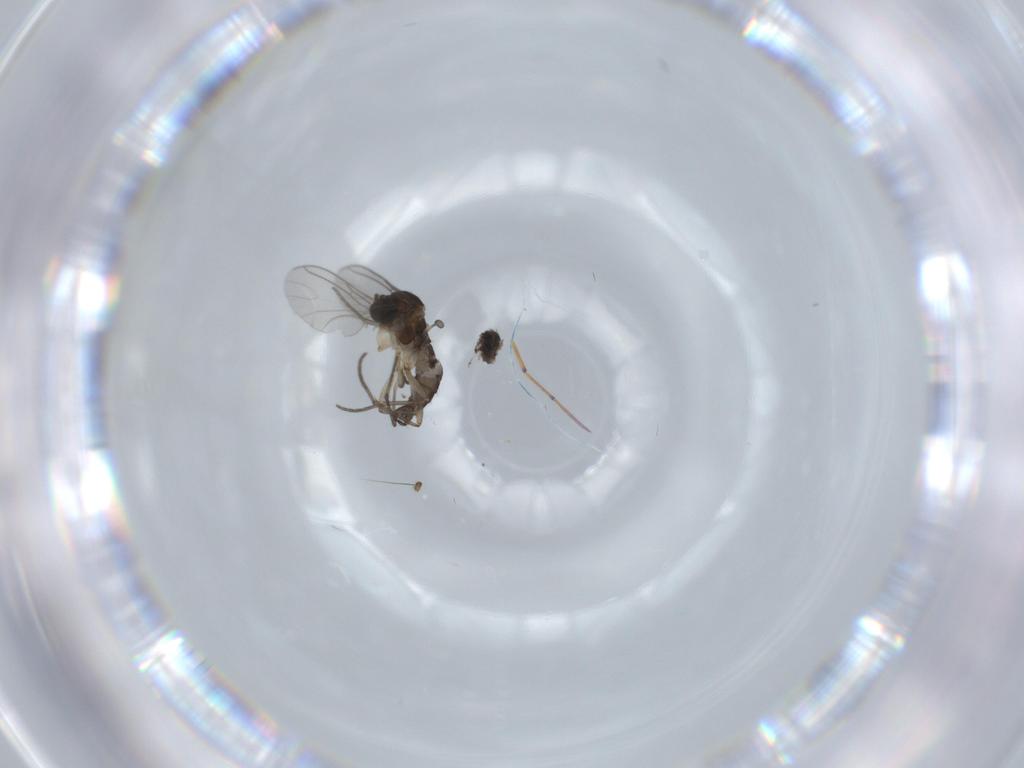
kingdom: Animalia
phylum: Arthropoda
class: Insecta
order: Diptera
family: Dolichopodidae
